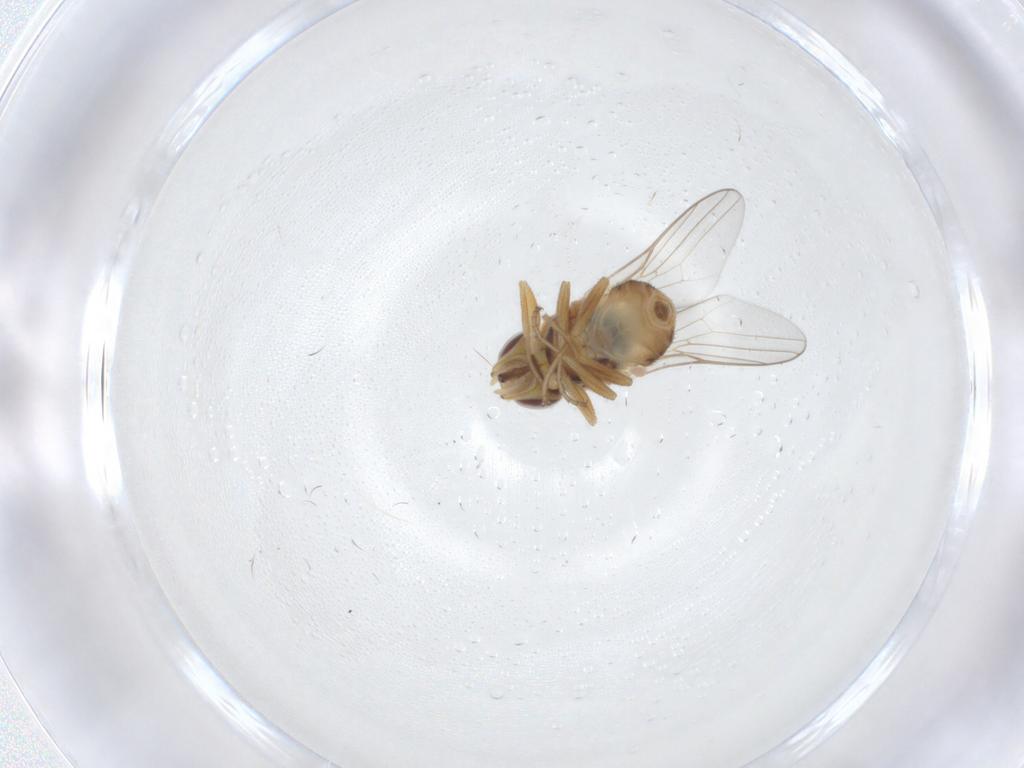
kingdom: Animalia
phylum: Arthropoda
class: Insecta
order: Diptera
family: Chloropidae
